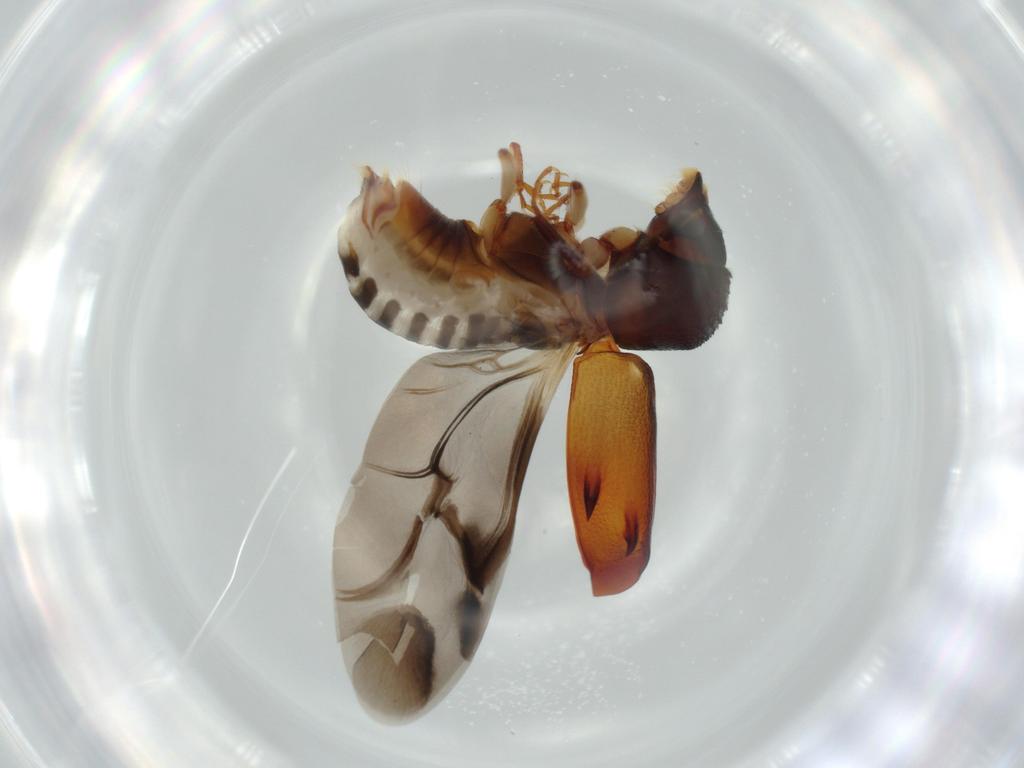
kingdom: Animalia
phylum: Arthropoda
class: Insecta
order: Coleoptera
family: Bostrichidae
